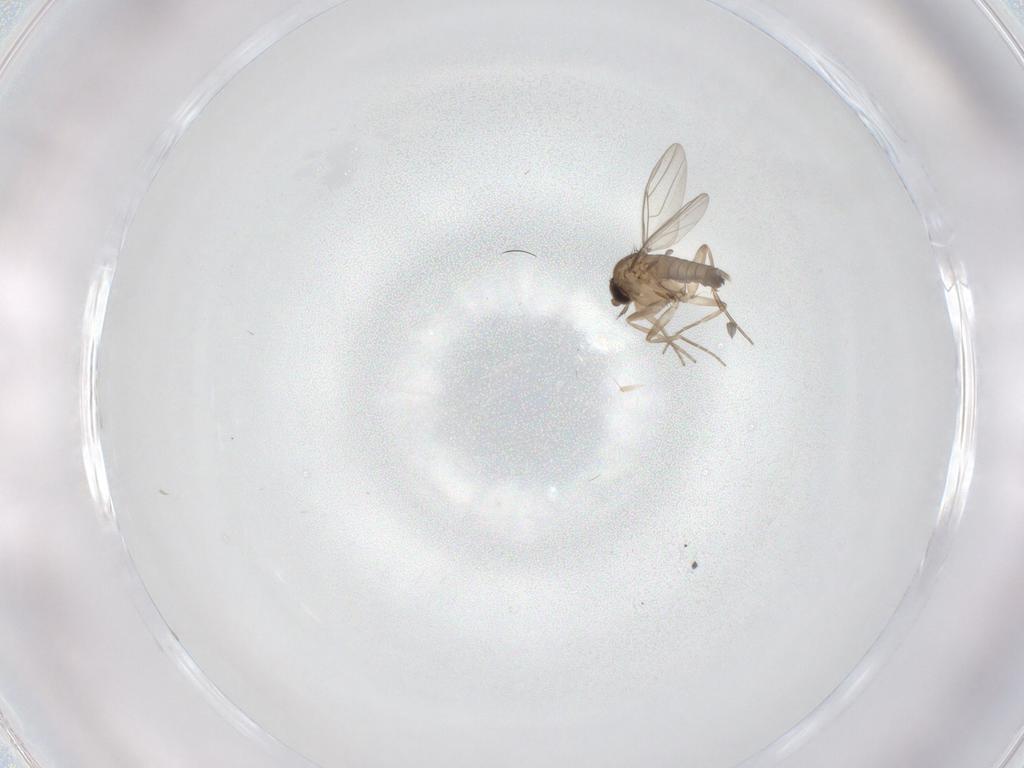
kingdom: Animalia
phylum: Arthropoda
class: Insecta
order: Diptera
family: Phoridae
